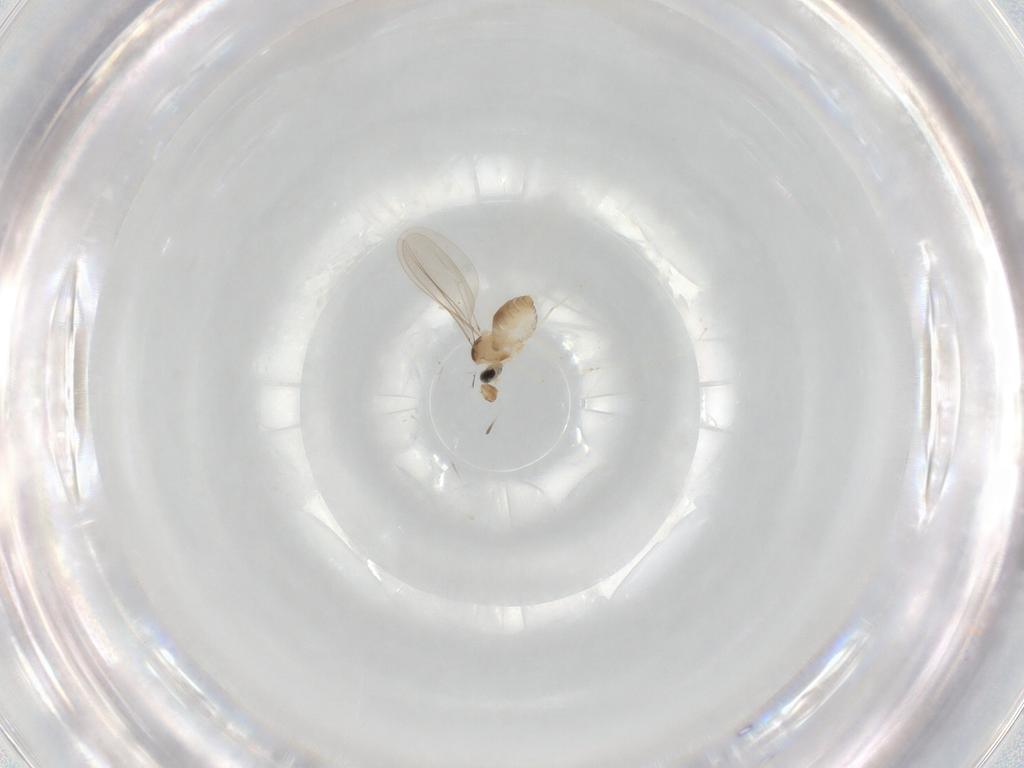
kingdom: Animalia
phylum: Arthropoda
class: Insecta
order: Diptera
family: Cecidomyiidae
